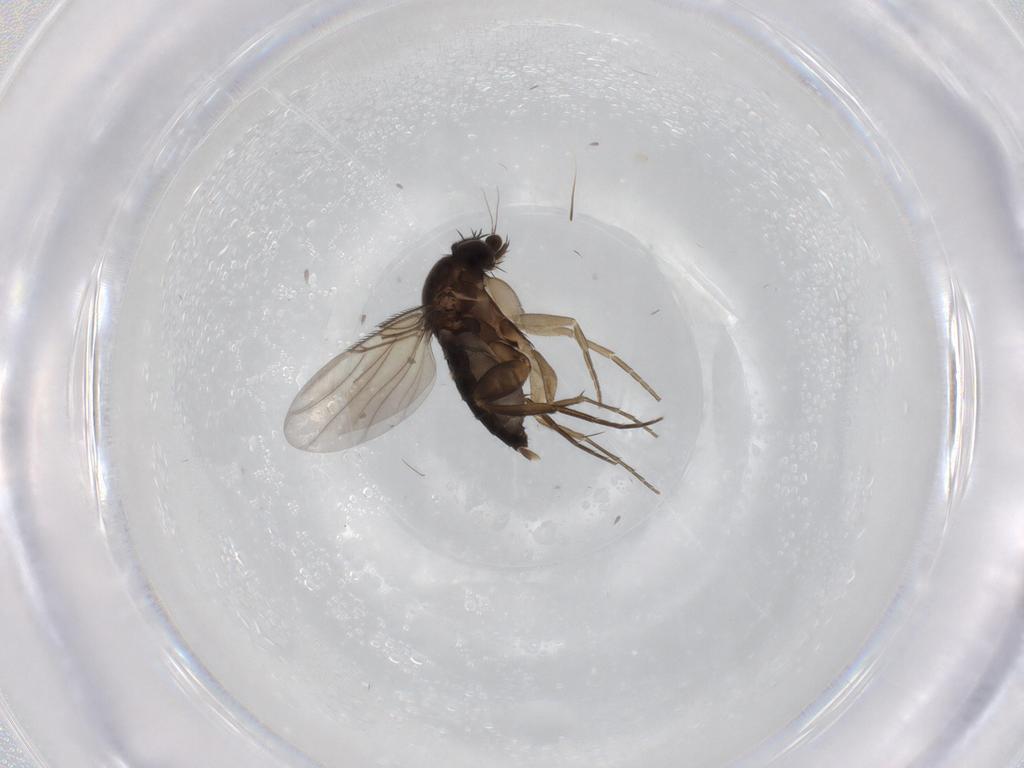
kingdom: Animalia
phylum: Arthropoda
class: Insecta
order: Diptera
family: Phoridae
